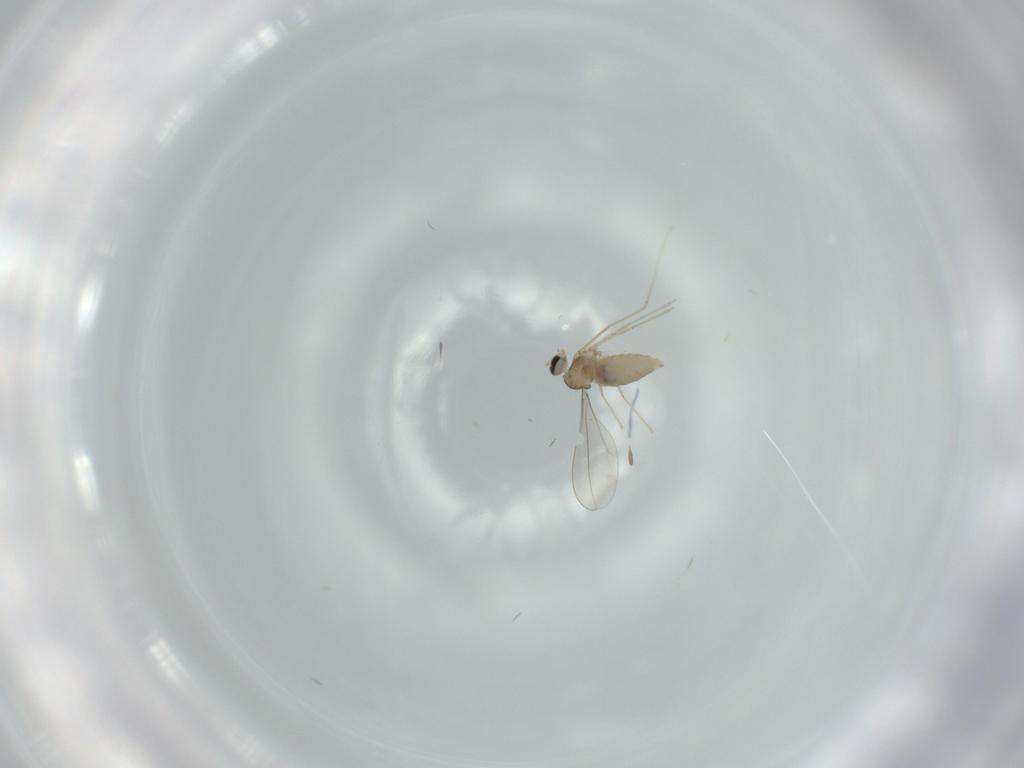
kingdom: Animalia
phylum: Arthropoda
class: Insecta
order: Diptera
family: Cecidomyiidae
